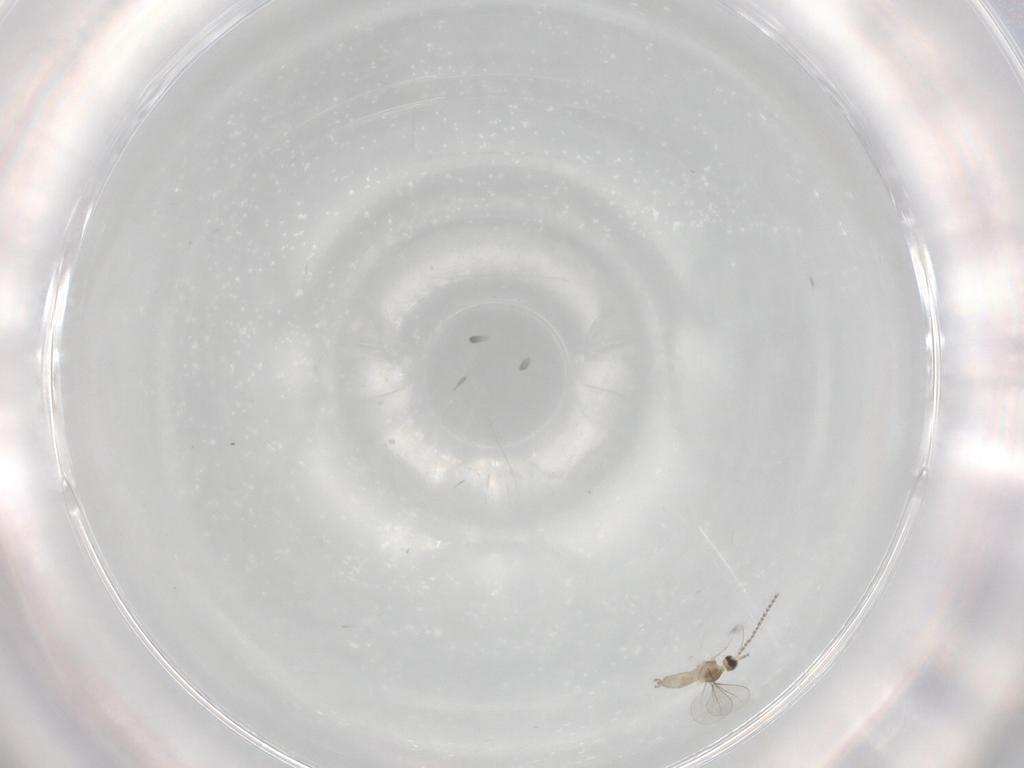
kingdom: Animalia
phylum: Arthropoda
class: Insecta
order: Diptera
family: Cecidomyiidae
